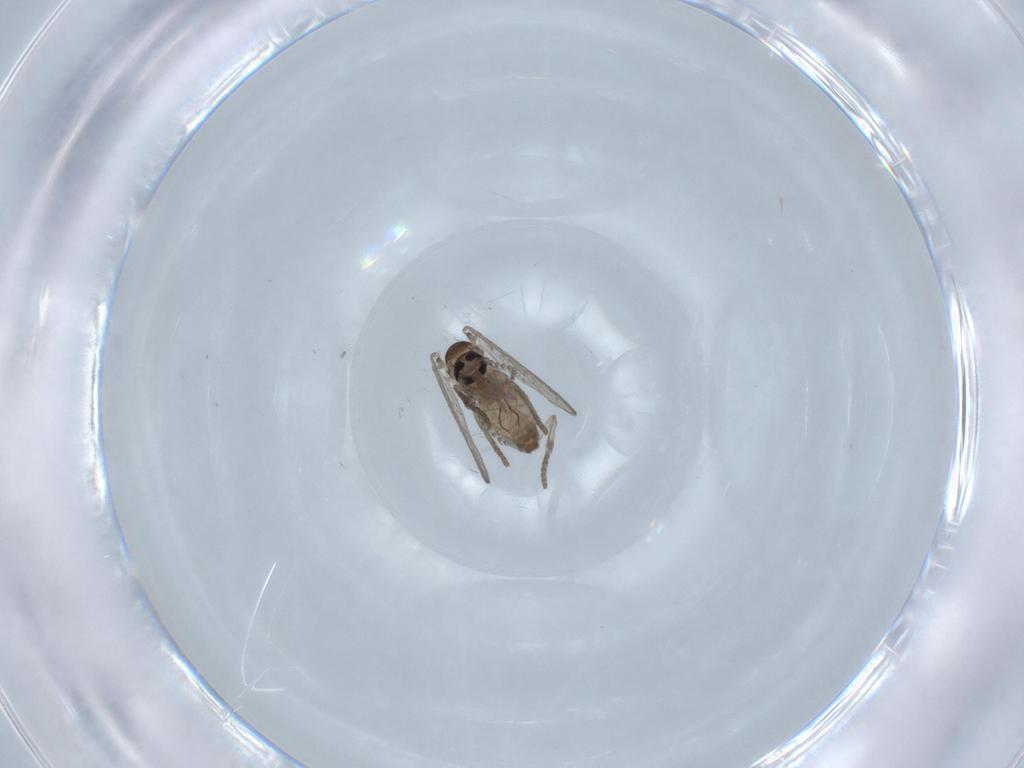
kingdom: Animalia
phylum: Arthropoda
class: Insecta
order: Diptera
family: Psychodidae
